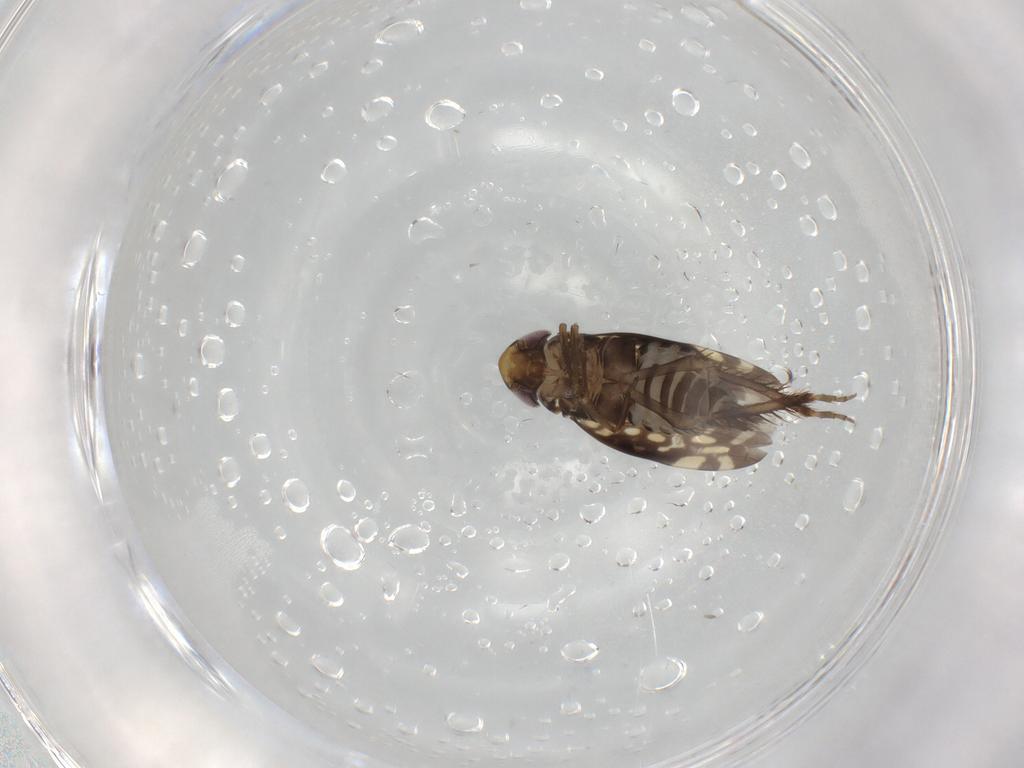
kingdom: Animalia
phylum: Arthropoda
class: Insecta
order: Hemiptera
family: Cicadellidae
